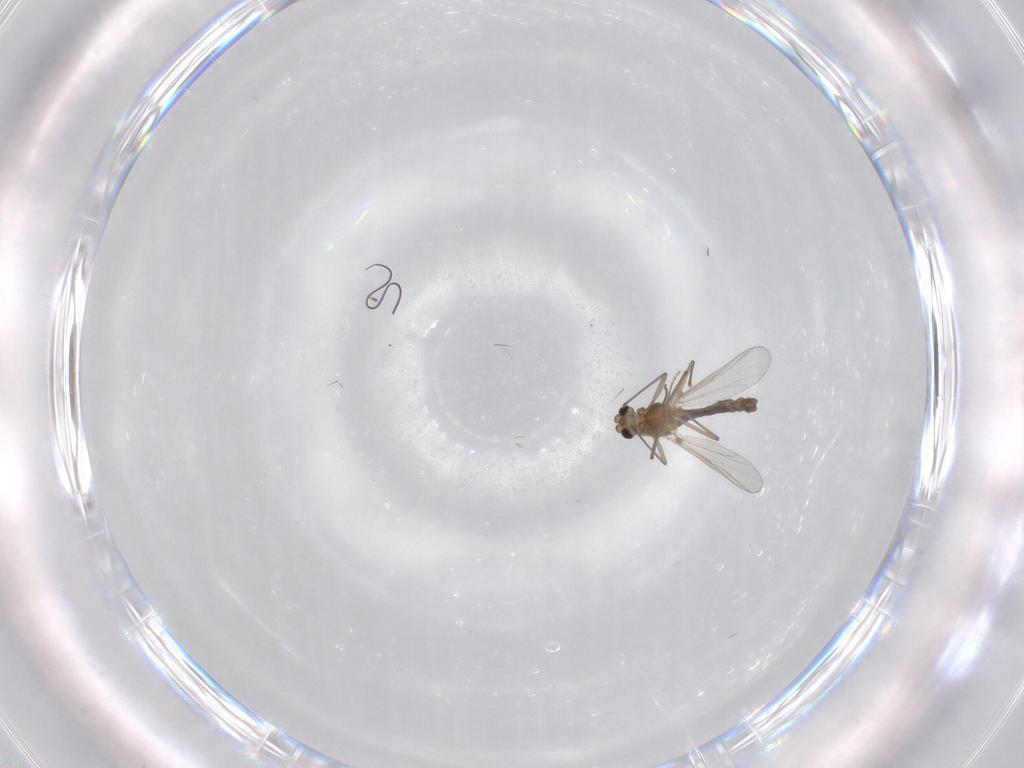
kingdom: Animalia
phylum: Arthropoda
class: Insecta
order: Diptera
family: Chironomidae
